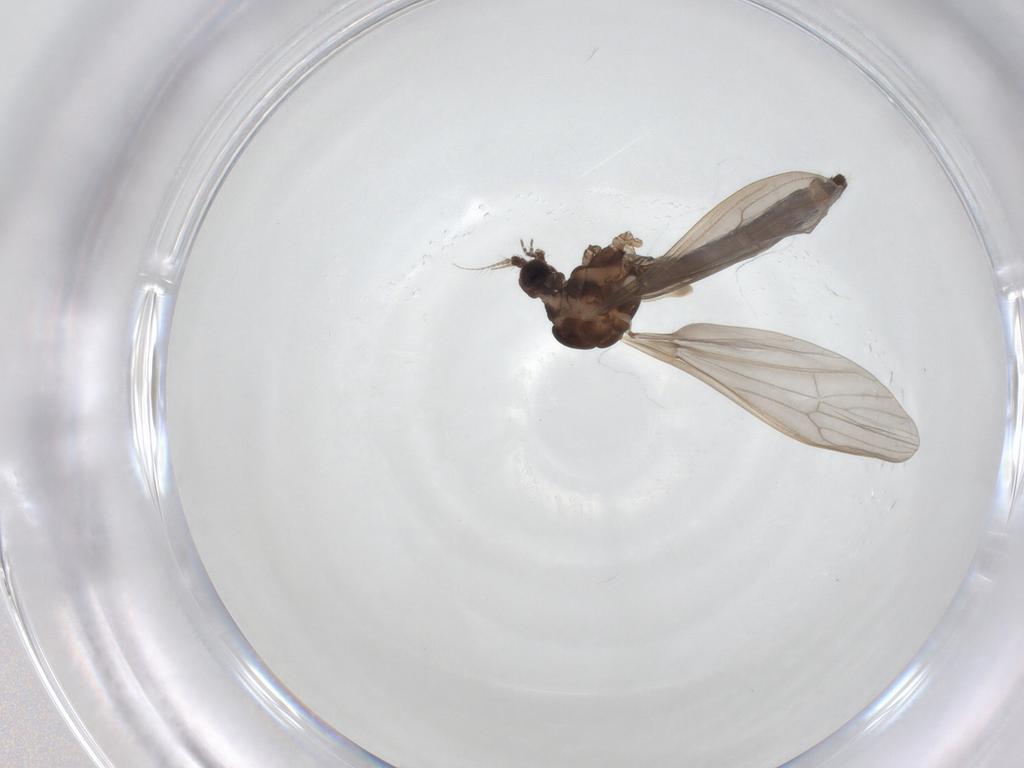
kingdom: Animalia
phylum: Arthropoda
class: Insecta
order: Diptera
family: Limoniidae
